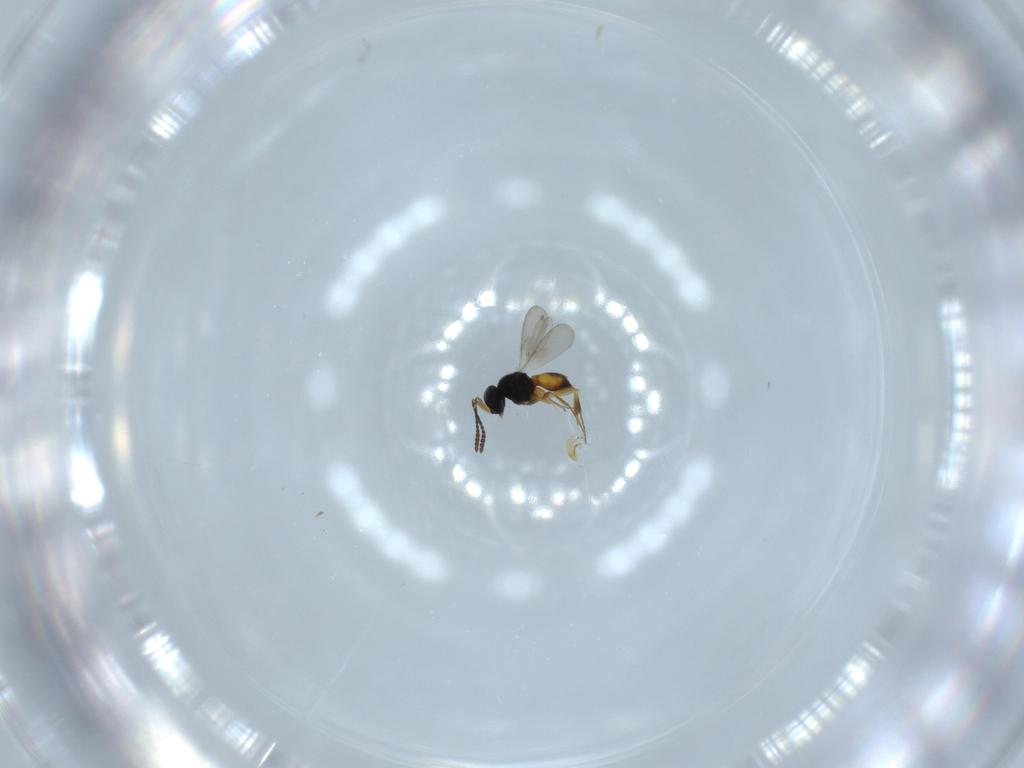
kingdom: Animalia
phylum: Arthropoda
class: Insecta
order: Hymenoptera
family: Scelionidae
